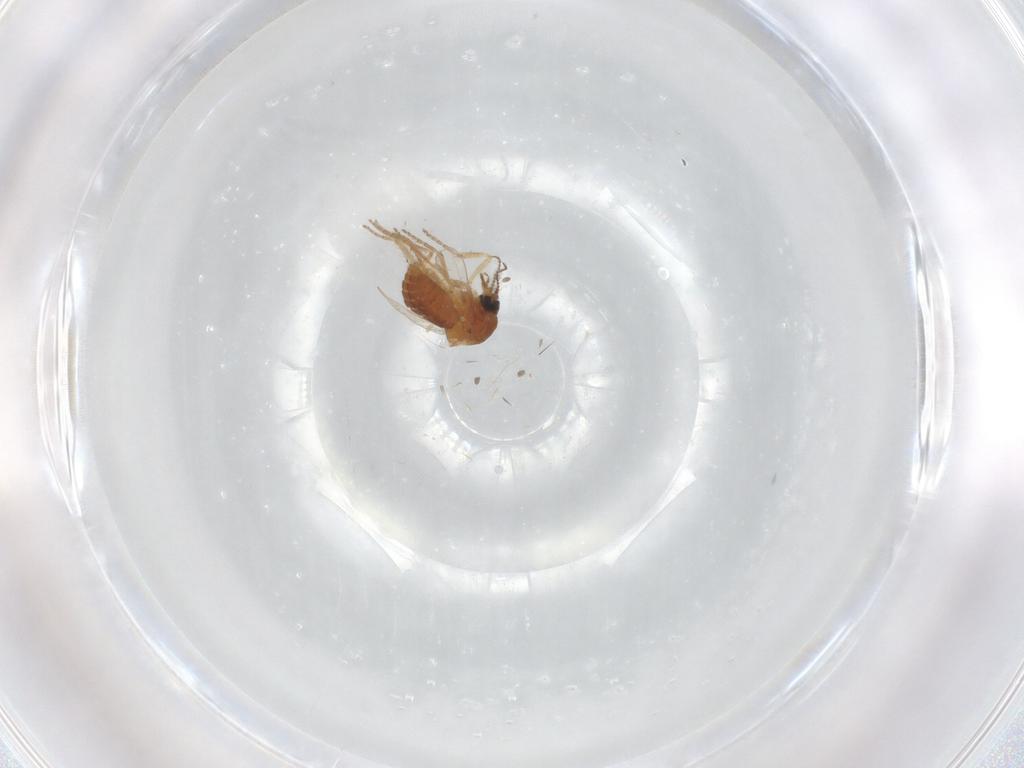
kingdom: Animalia
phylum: Arthropoda
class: Insecta
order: Diptera
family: Ceratopogonidae
